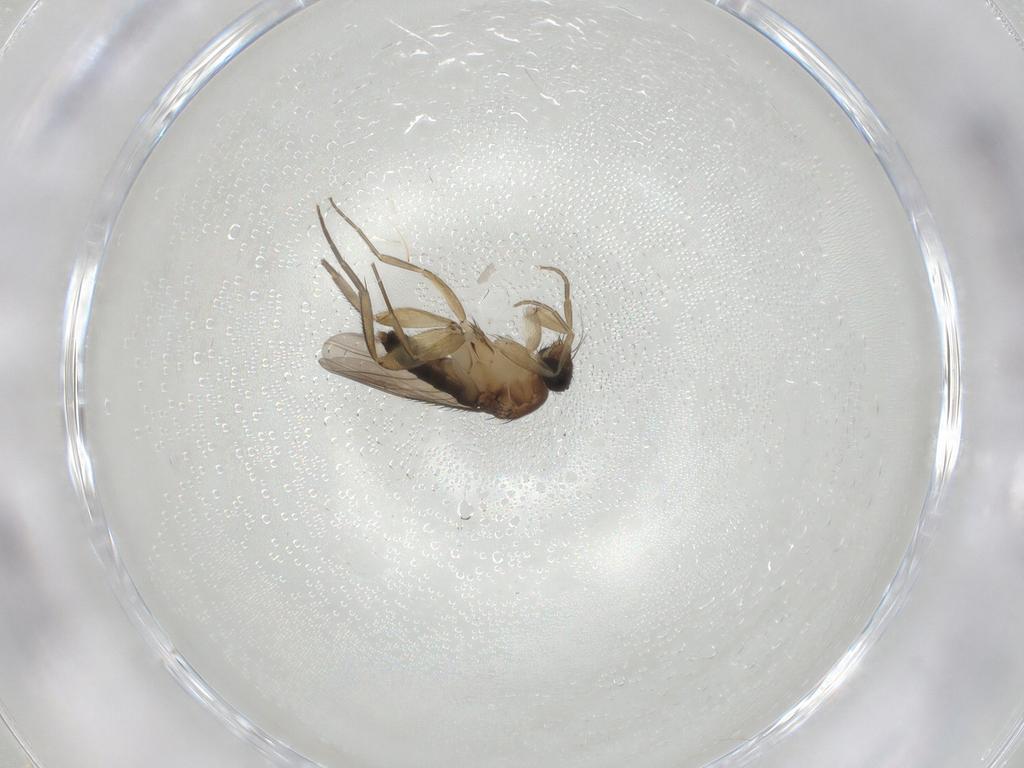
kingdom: Animalia
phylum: Arthropoda
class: Insecta
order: Diptera
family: Phoridae
